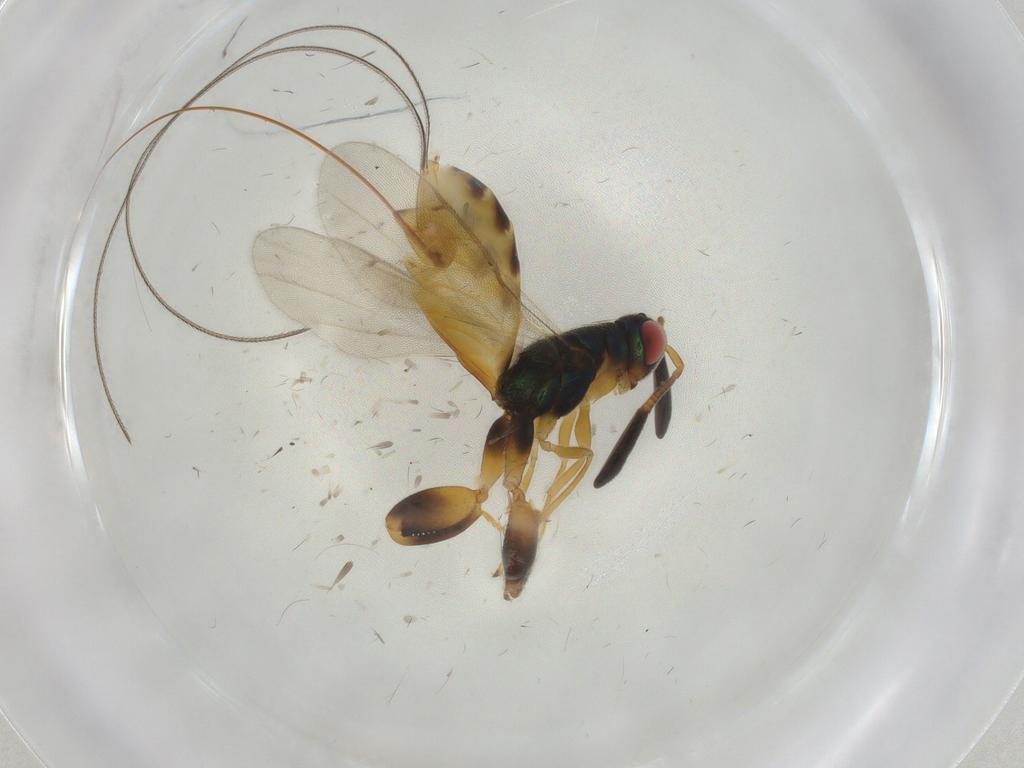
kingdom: Animalia
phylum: Arthropoda
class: Insecta
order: Hymenoptera
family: Torymidae
